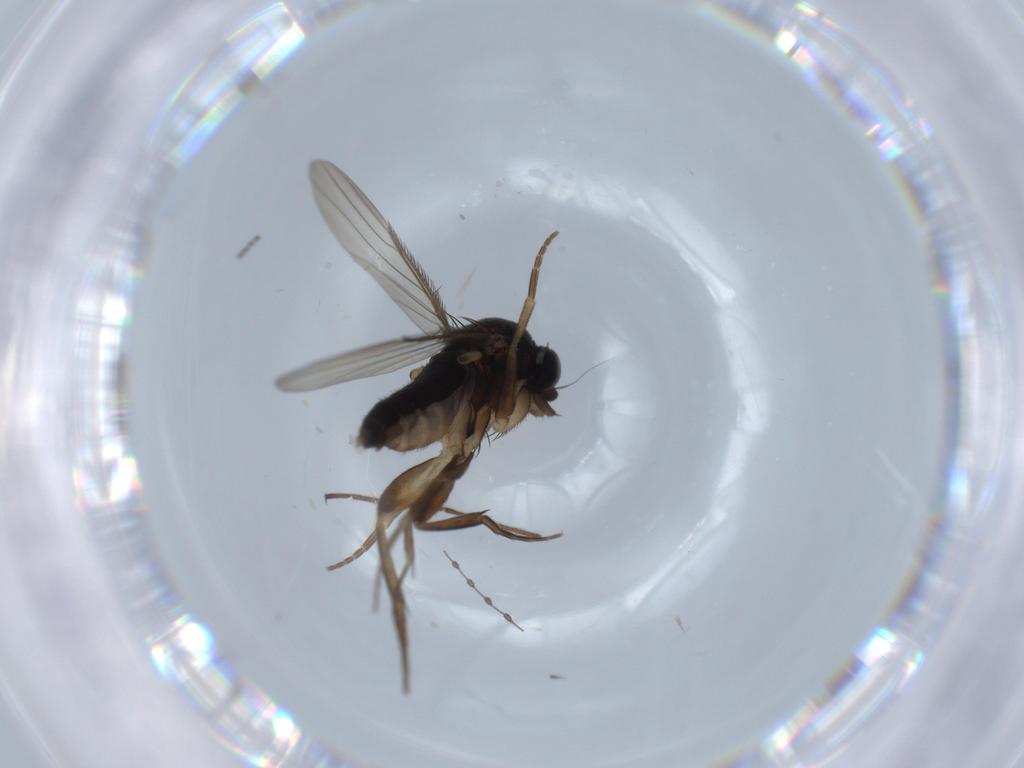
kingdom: Animalia
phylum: Arthropoda
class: Insecta
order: Diptera
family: Phoridae
